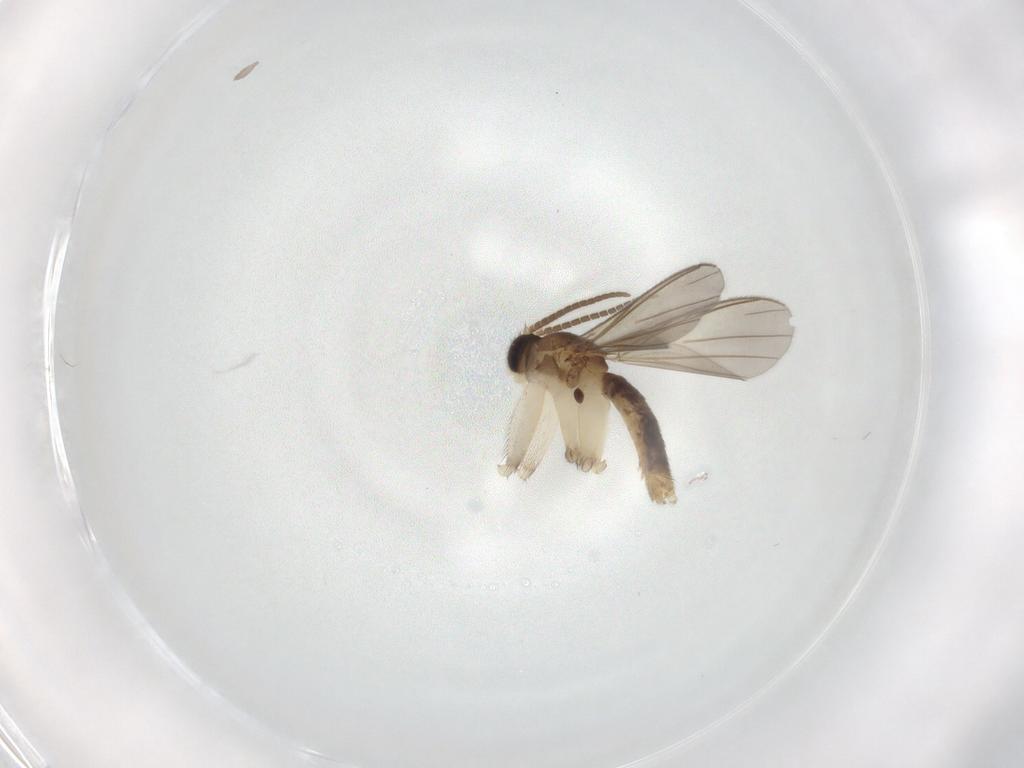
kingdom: Animalia
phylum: Arthropoda
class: Insecta
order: Diptera
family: Mycetophilidae
